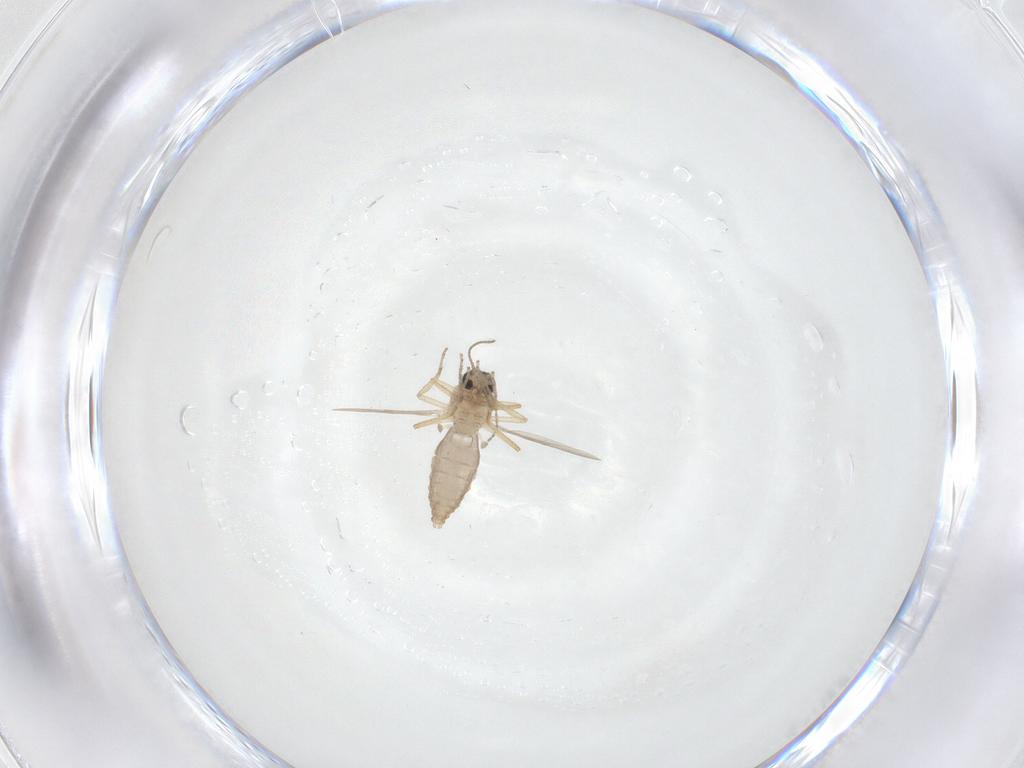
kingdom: Animalia
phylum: Arthropoda
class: Insecta
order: Diptera
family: Ceratopogonidae
